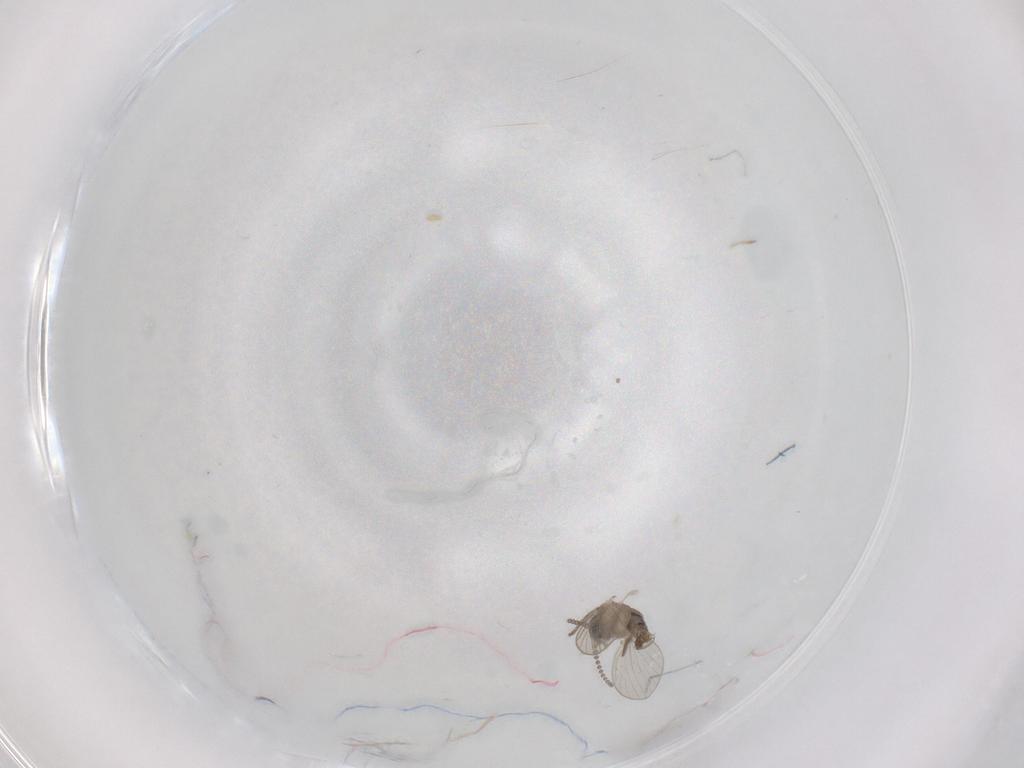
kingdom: Animalia
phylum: Arthropoda
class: Insecta
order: Diptera
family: Psychodidae
